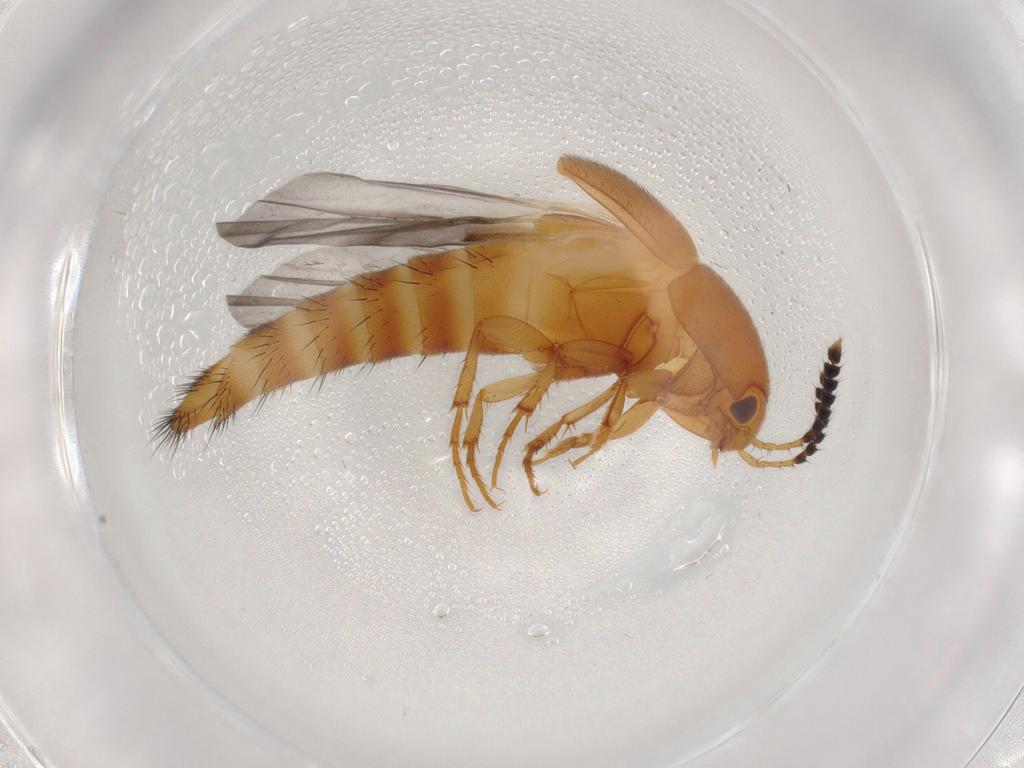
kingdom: Animalia
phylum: Arthropoda
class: Insecta
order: Coleoptera
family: Staphylinidae
